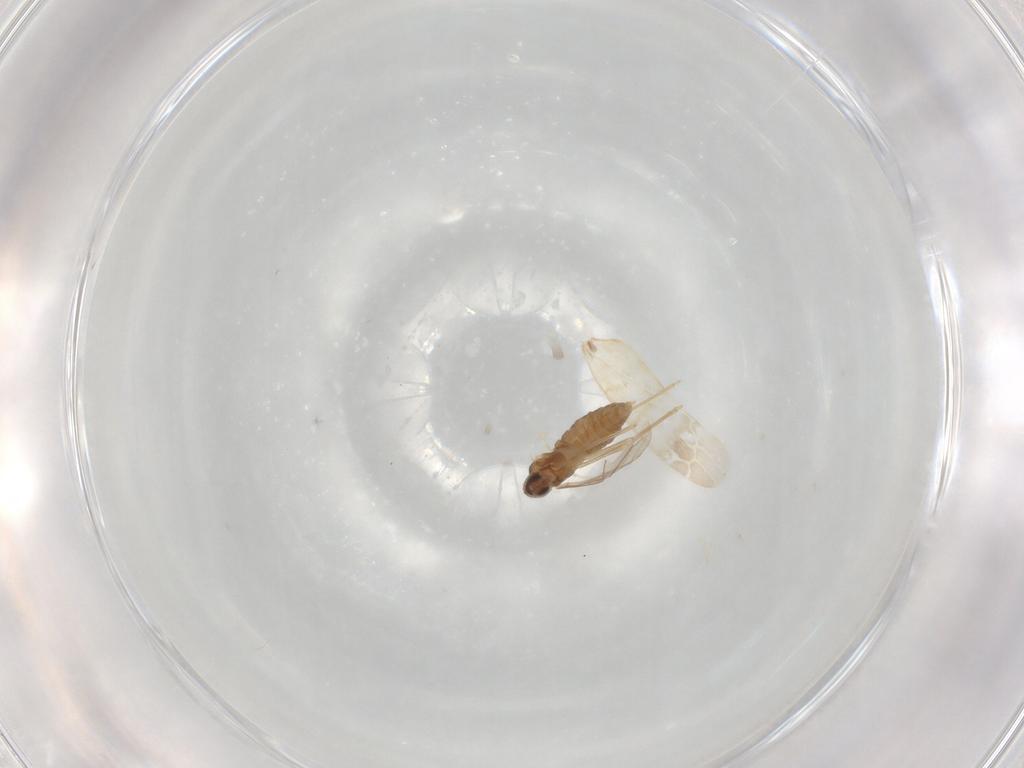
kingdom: Animalia
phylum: Arthropoda
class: Insecta
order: Diptera
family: Cecidomyiidae
